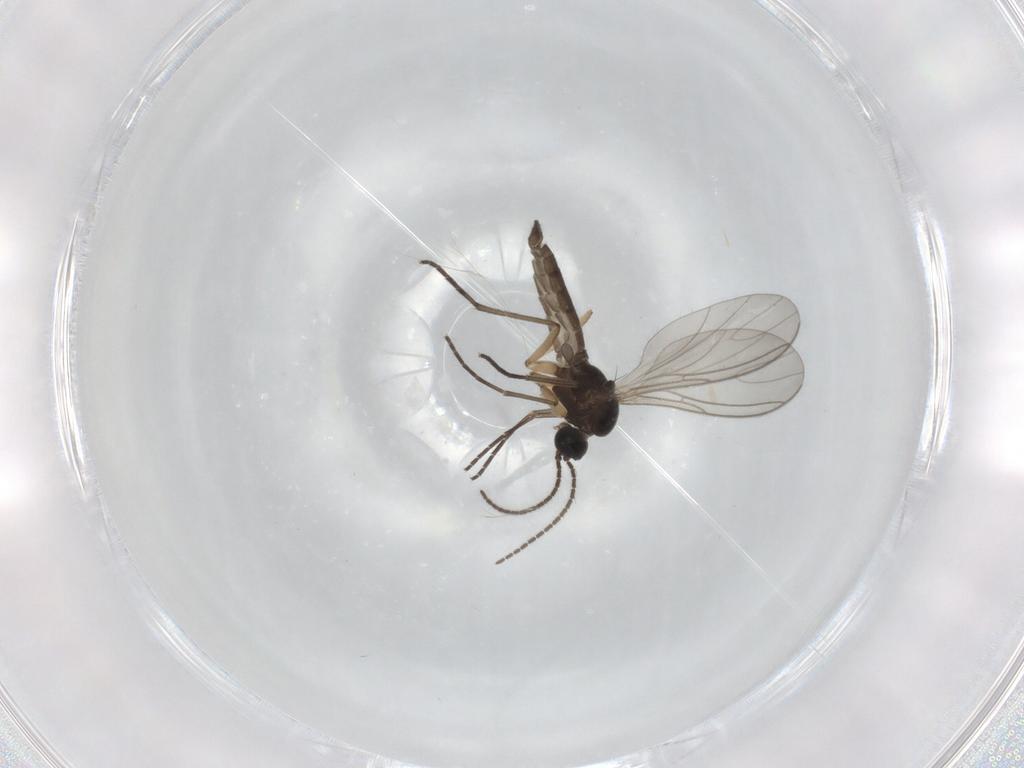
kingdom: Animalia
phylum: Arthropoda
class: Insecta
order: Diptera
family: Sciaridae
